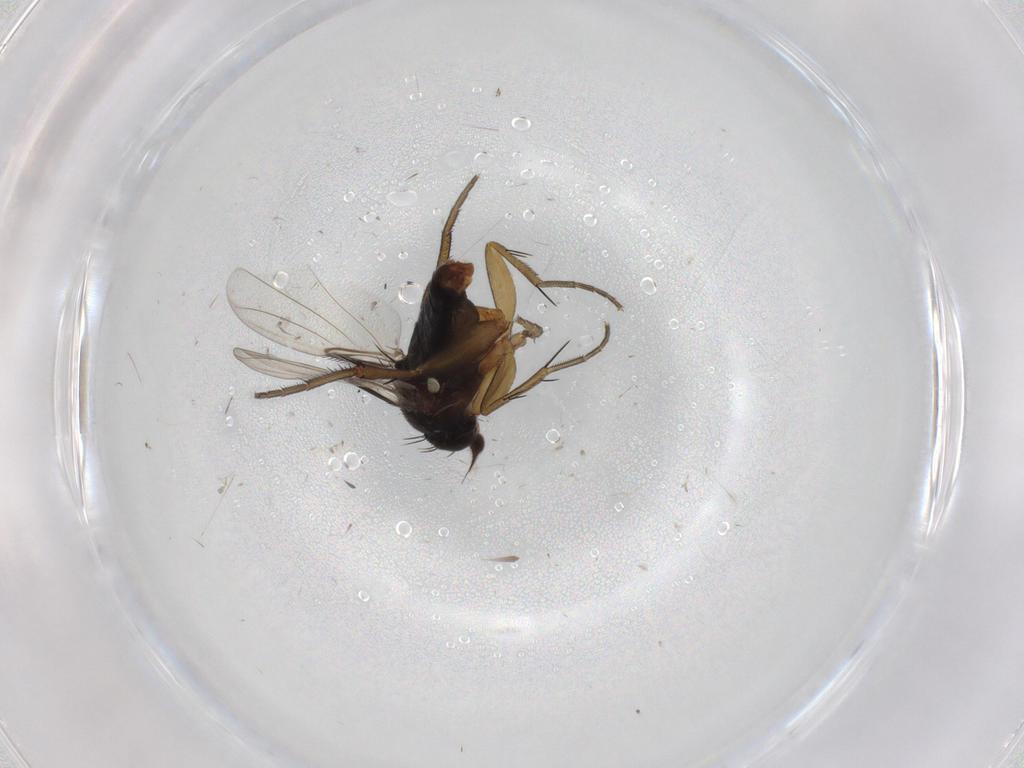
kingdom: Animalia
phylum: Arthropoda
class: Insecta
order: Diptera
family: Phoridae
